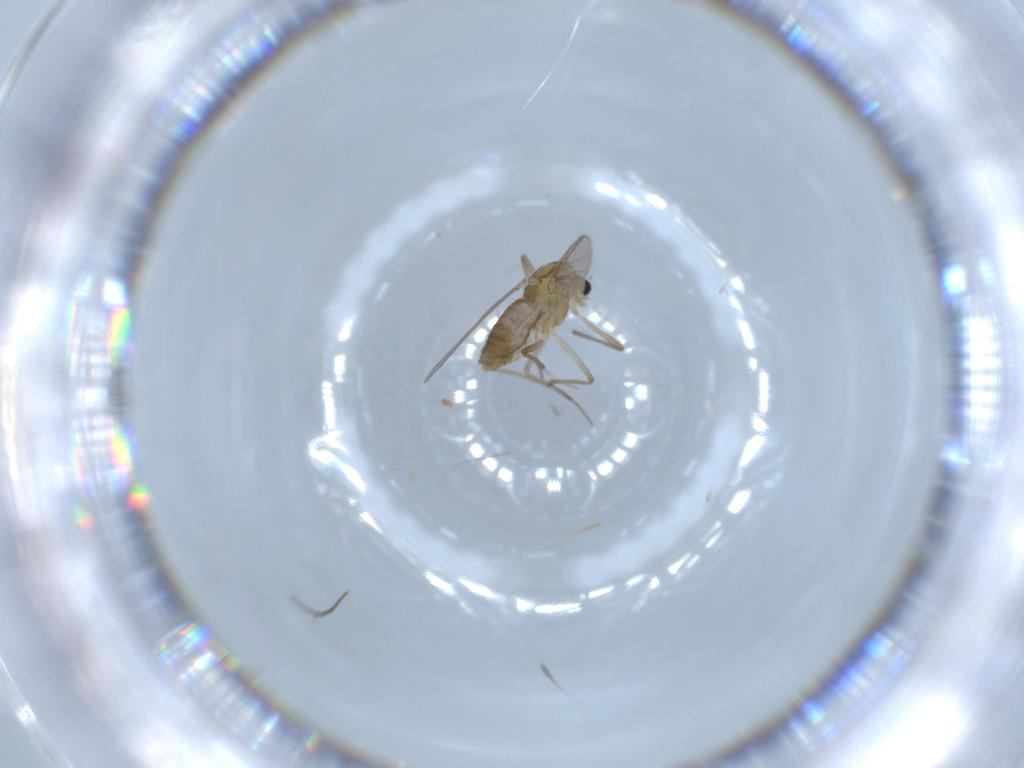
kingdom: Animalia
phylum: Arthropoda
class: Insecta
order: Diptera
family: Chironomidae
